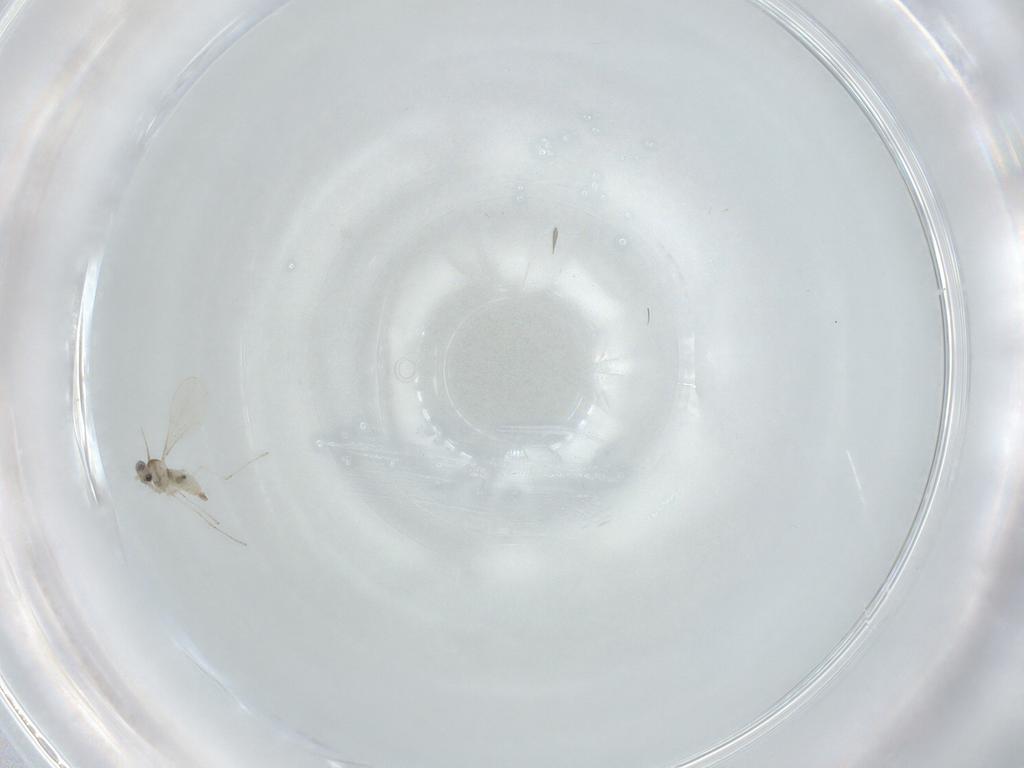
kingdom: Animalia
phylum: Arthropoda
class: Insecta
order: Diptera
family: Cecidomyiidae
